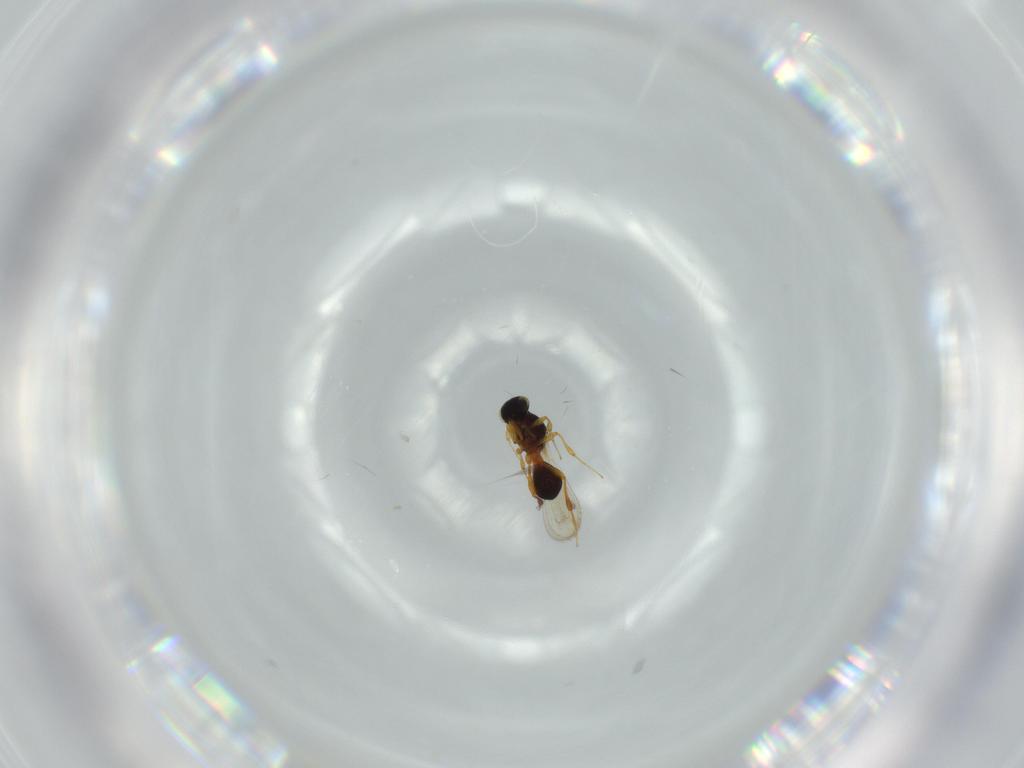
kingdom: Animalia
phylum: Arthropoda
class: Insecta
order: Hymenoptera
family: Platygastridae
